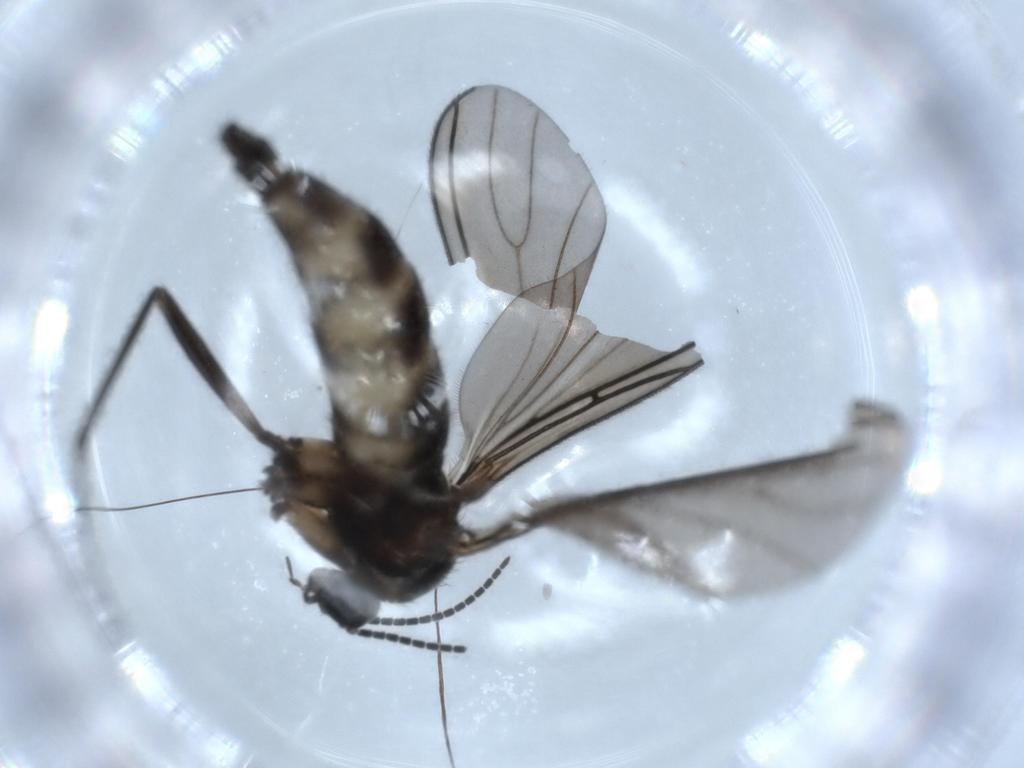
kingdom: Animalia
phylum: Arthropoda
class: Insecta
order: Diptera
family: Sciaridae
